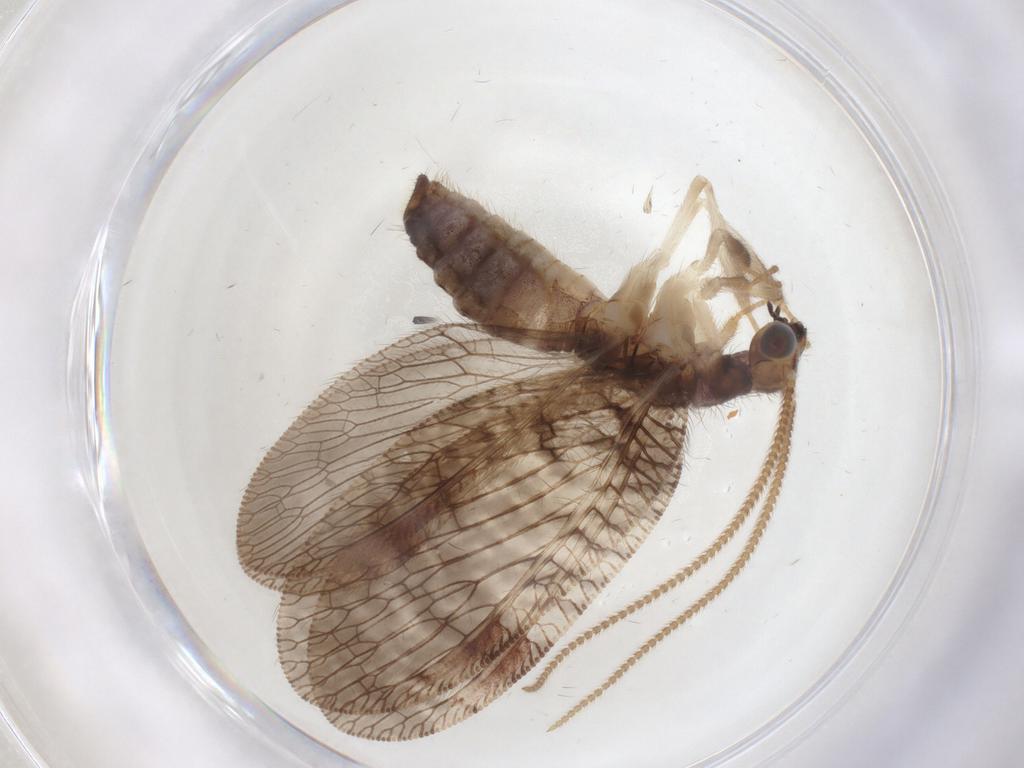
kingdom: Animalia
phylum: Arthropoda
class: Insecta
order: Neuroptera
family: Hemerobiidae
